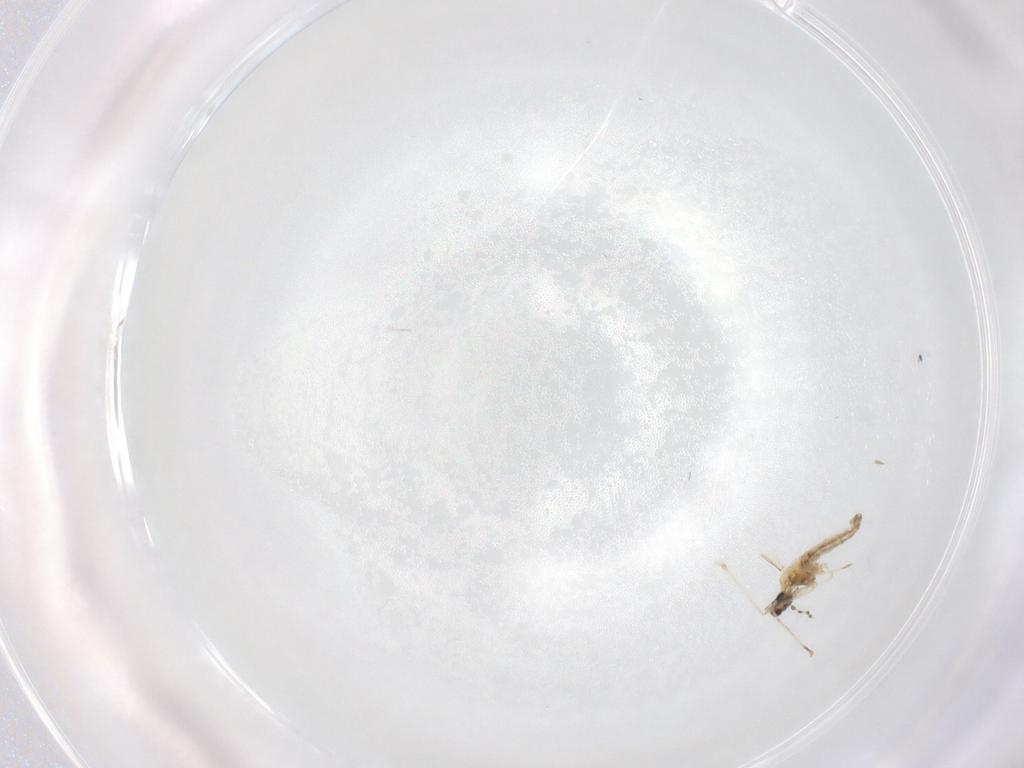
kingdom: Animalia
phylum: Arthropoda
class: Insecta
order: Diptera
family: Cecidomyiidae
